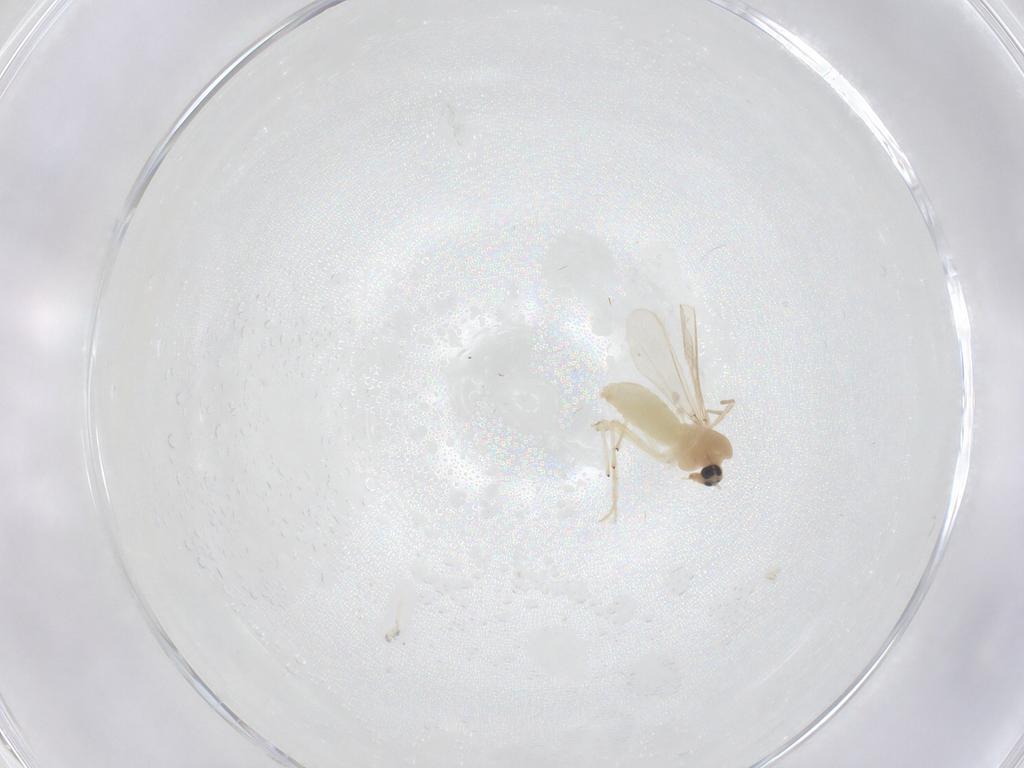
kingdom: Animalia
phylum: Arthropoda
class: Insecta
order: Diptera
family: Chironomidae
